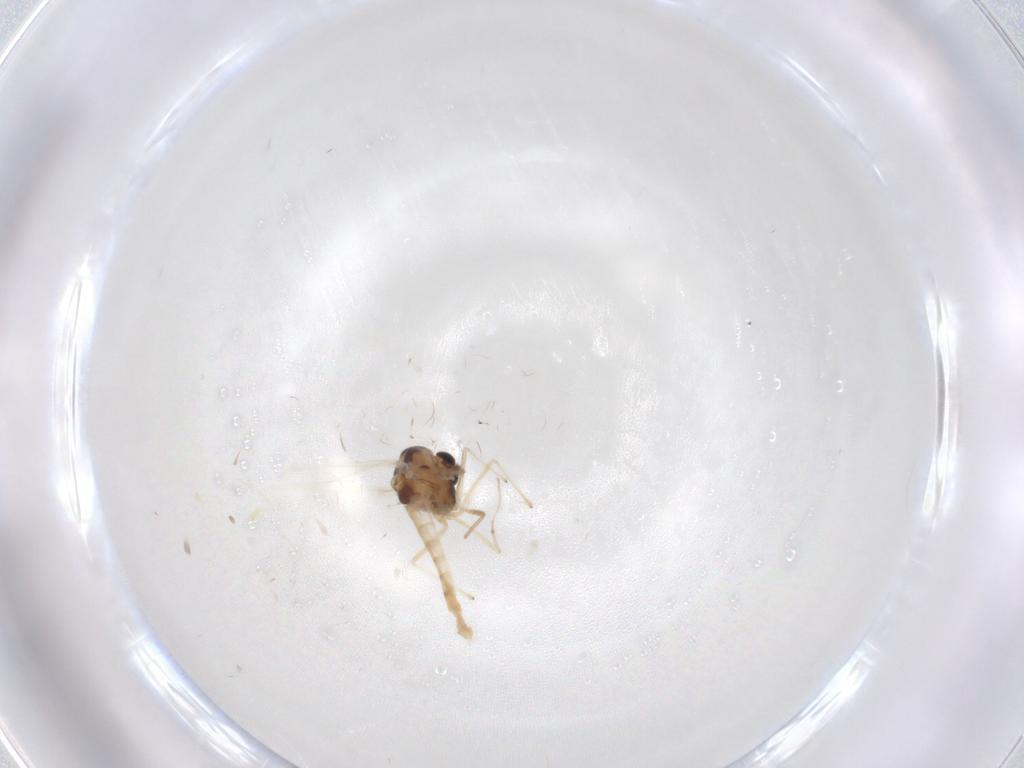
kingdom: Animalia
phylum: Arthropoda
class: Insecta
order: Diptera
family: Chironomidae
